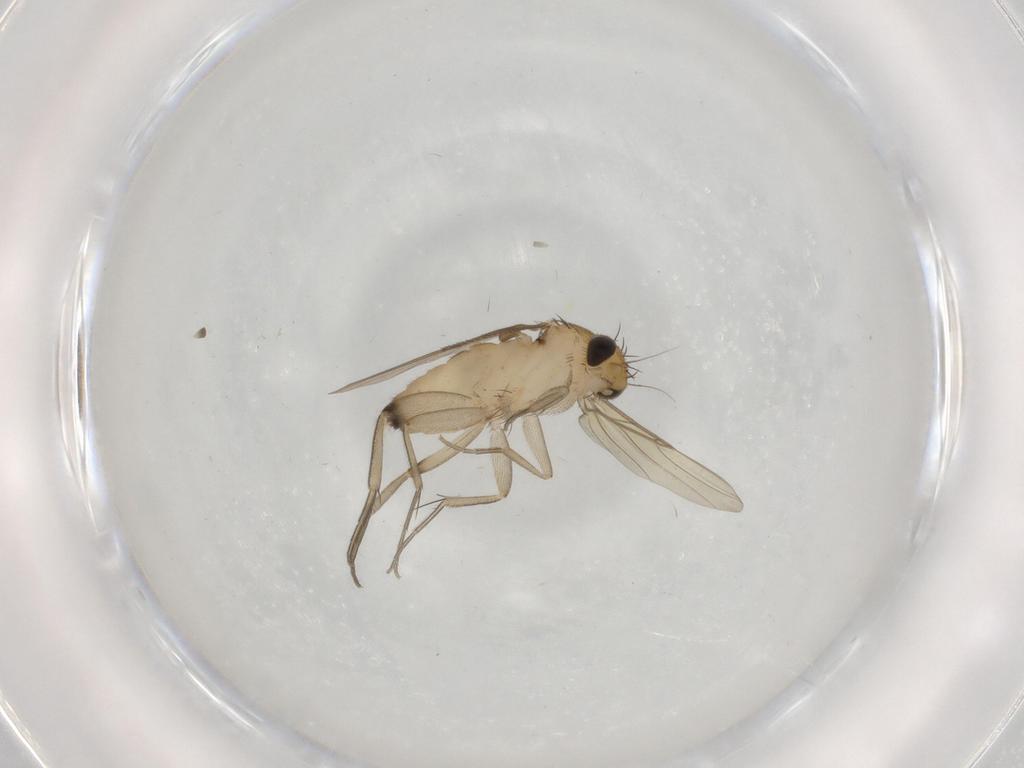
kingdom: Animalia
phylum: Arthropoda
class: Insecta
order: Diptera
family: Phoridae
